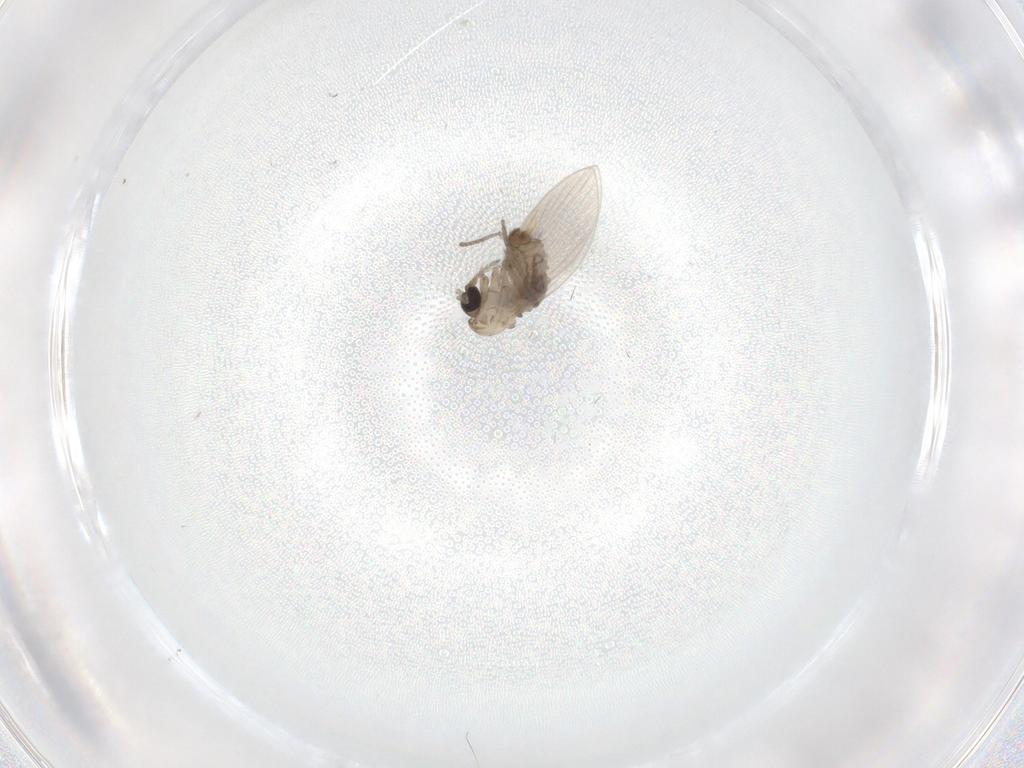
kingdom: Animalia
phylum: Arthropoda
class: Insecta
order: Diptera
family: Psychodidae
